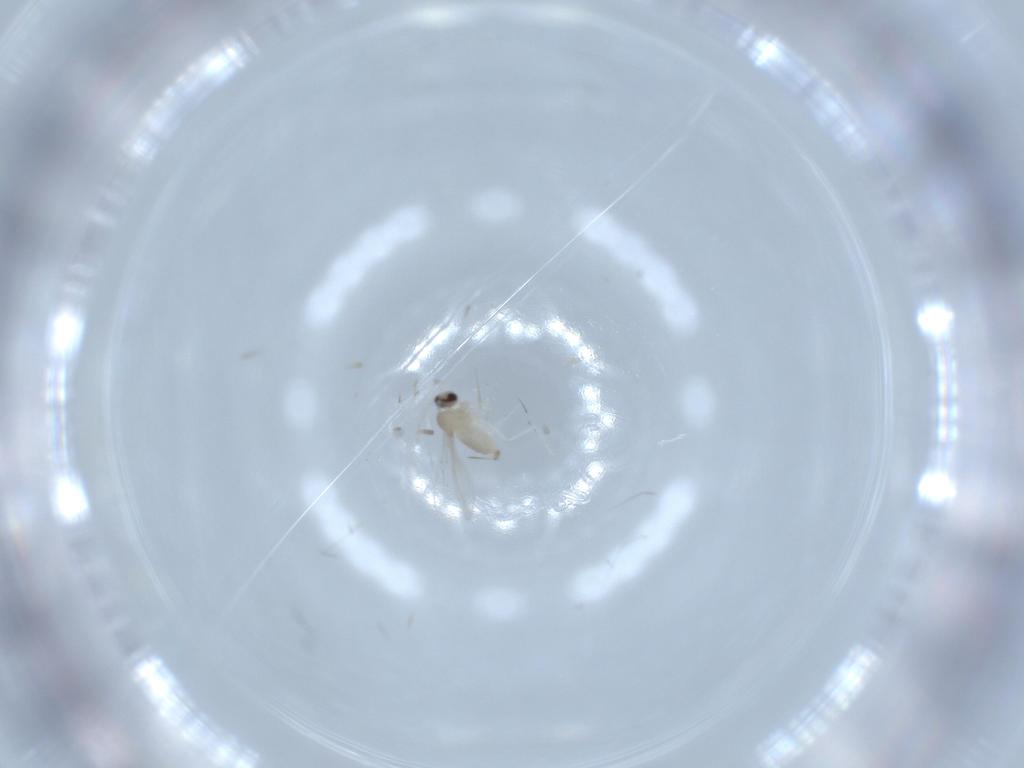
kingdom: Animalia
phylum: Arthropoda
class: Insecta
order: Diptera
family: Cecidomyiidae
